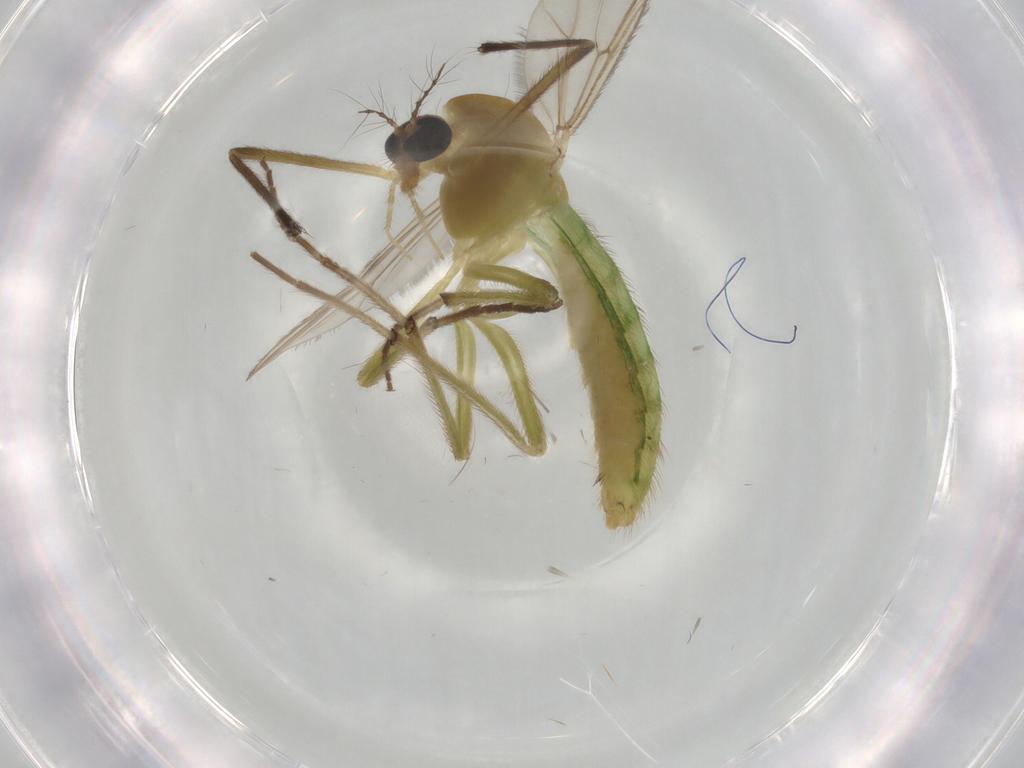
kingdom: Animalia
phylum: Arthropoda
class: Insecta
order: Diptera
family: Chironomidae
